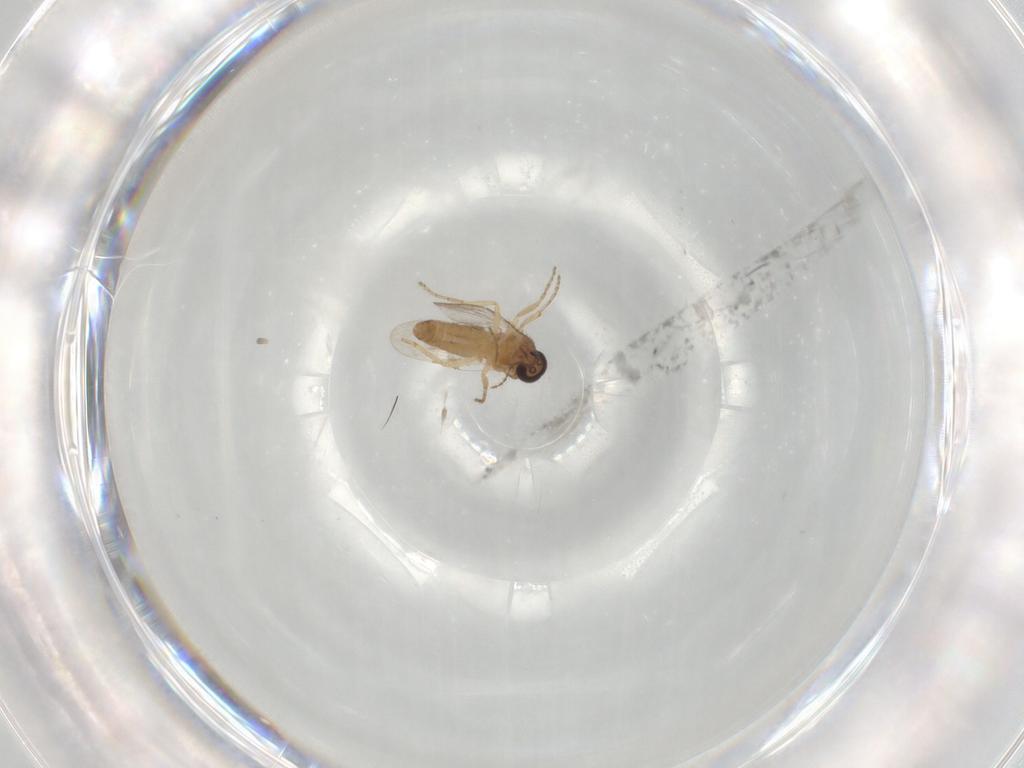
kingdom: Animalia
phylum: Arthropoda
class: Insecta
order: Diptera
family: Ceratopogonidae
